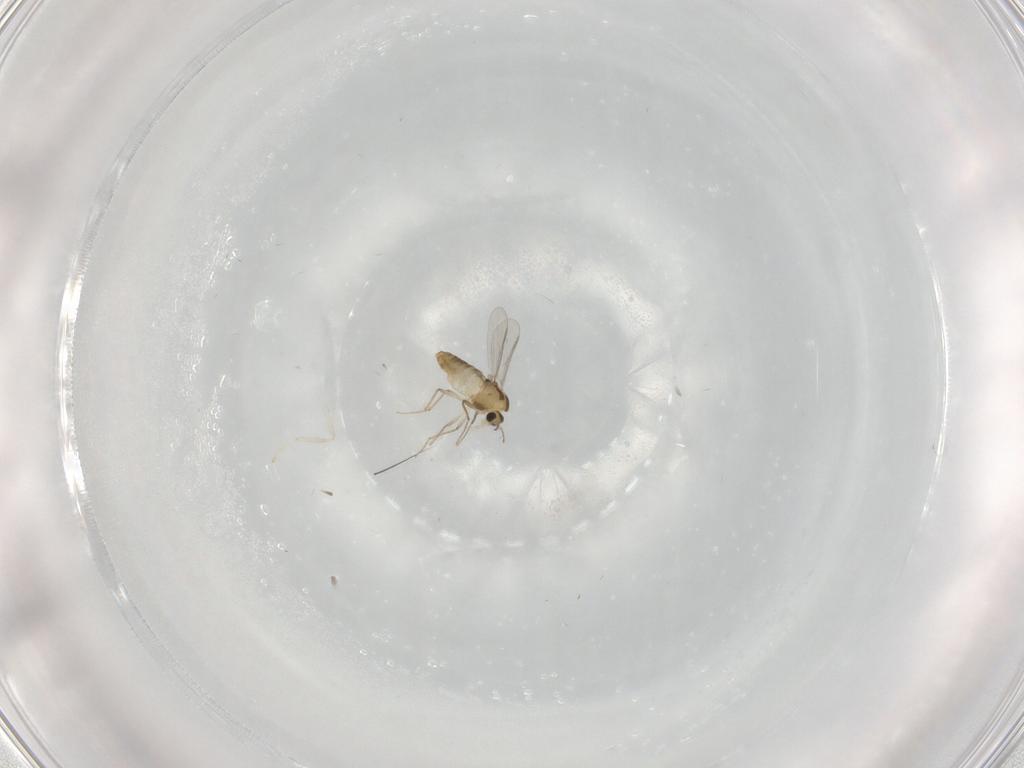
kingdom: Animalia
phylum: Arthropoda
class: Insecta
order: Diptera
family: Chironomidae
